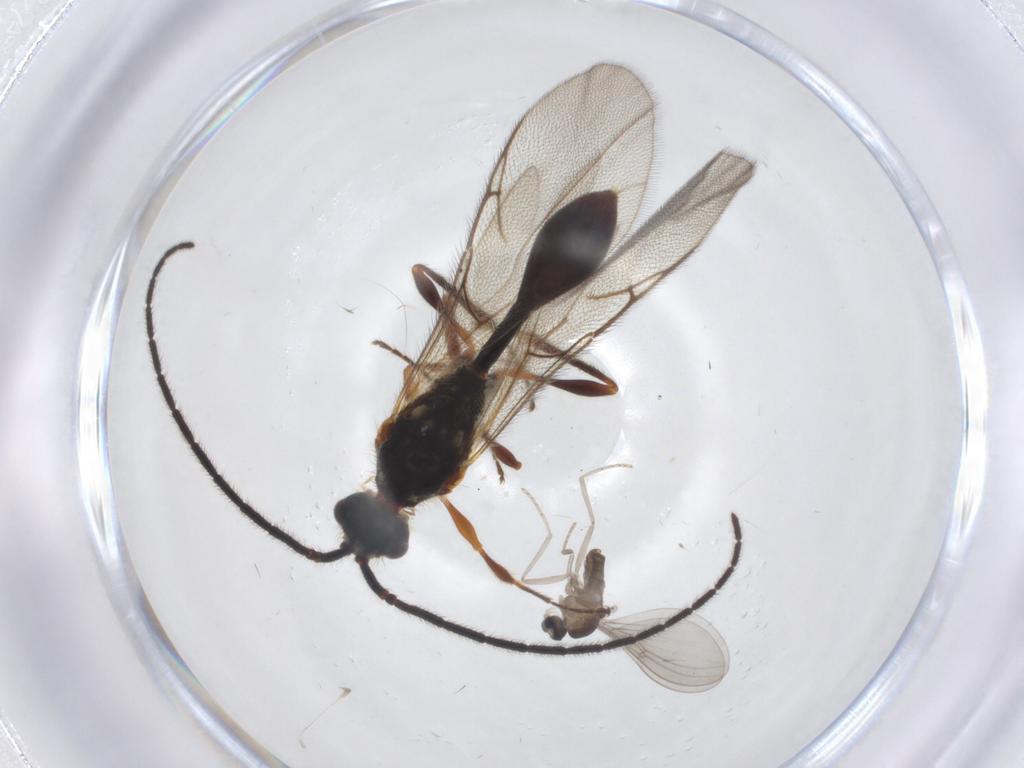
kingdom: Animalia
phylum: Arthropoda
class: Insecta
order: Diptera
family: Cecidomyiidae
